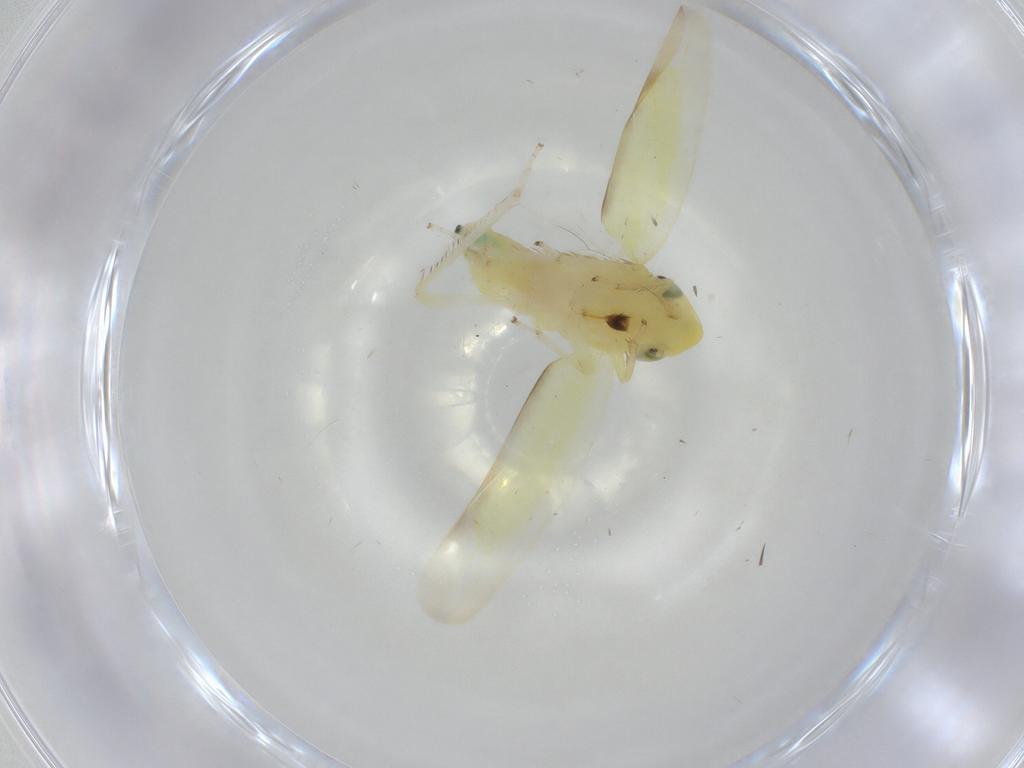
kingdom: Animalia
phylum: Arthropoda
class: Insecta
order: Hemiptera
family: Cicadellidae
